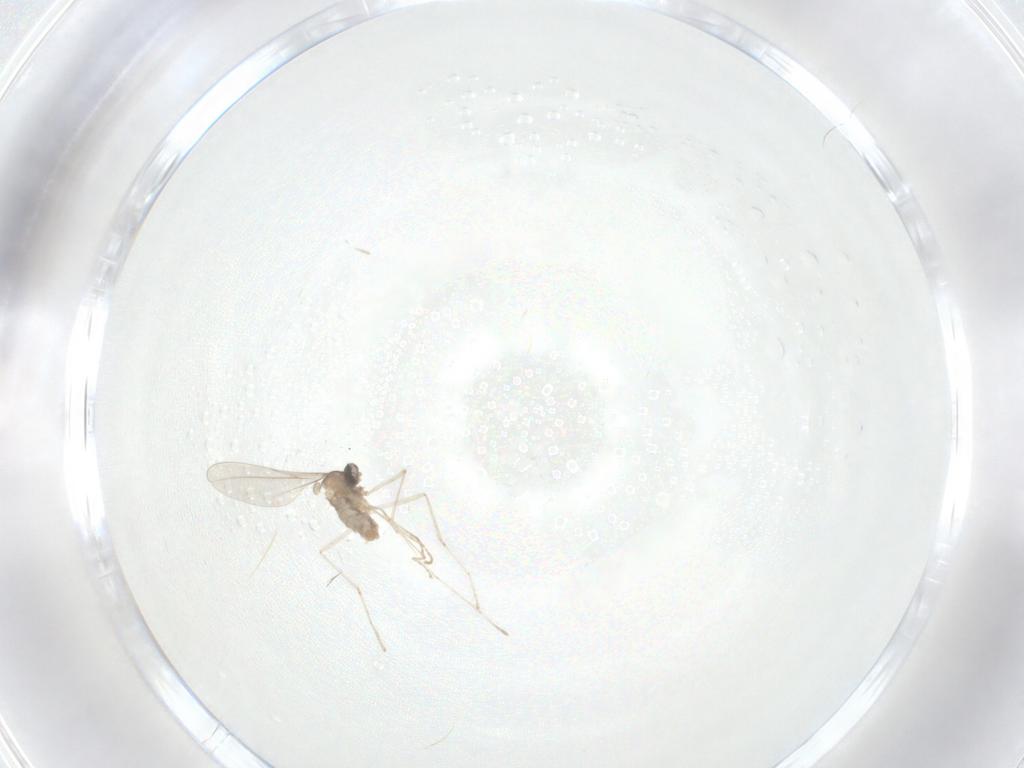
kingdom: Animalia
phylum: Arthropoda
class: Insecta
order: Diptera
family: Cecidomyiidae
